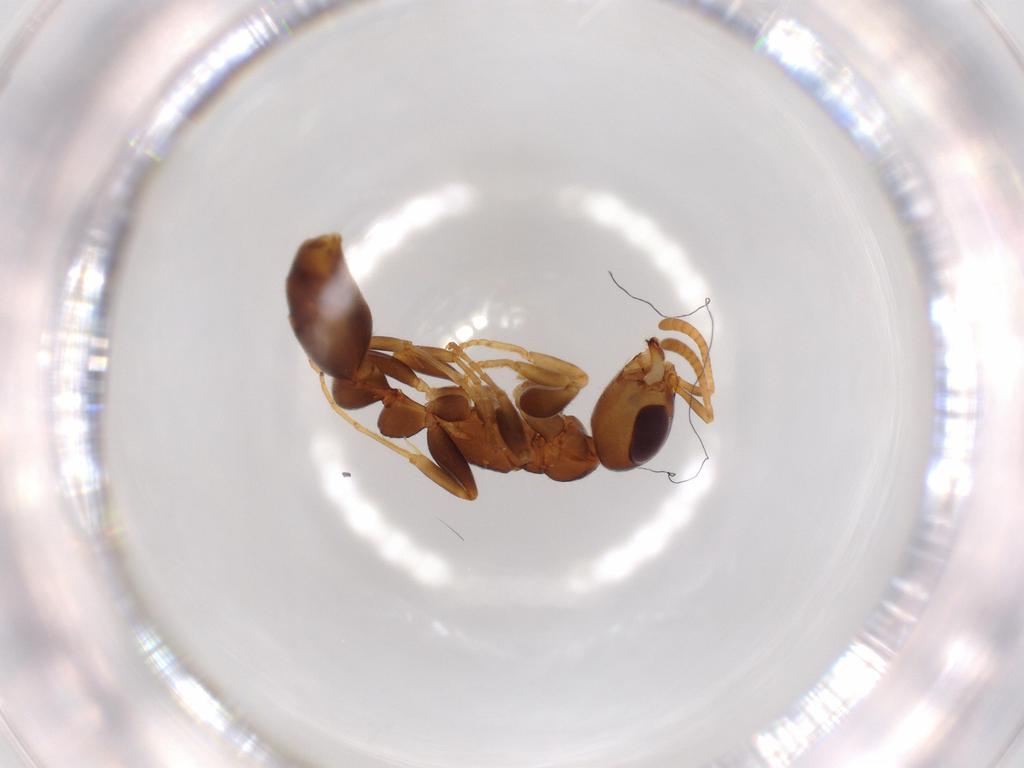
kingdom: Animalia
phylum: Arthropoda
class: Insecta
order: Hymenoptera
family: Formicidae
